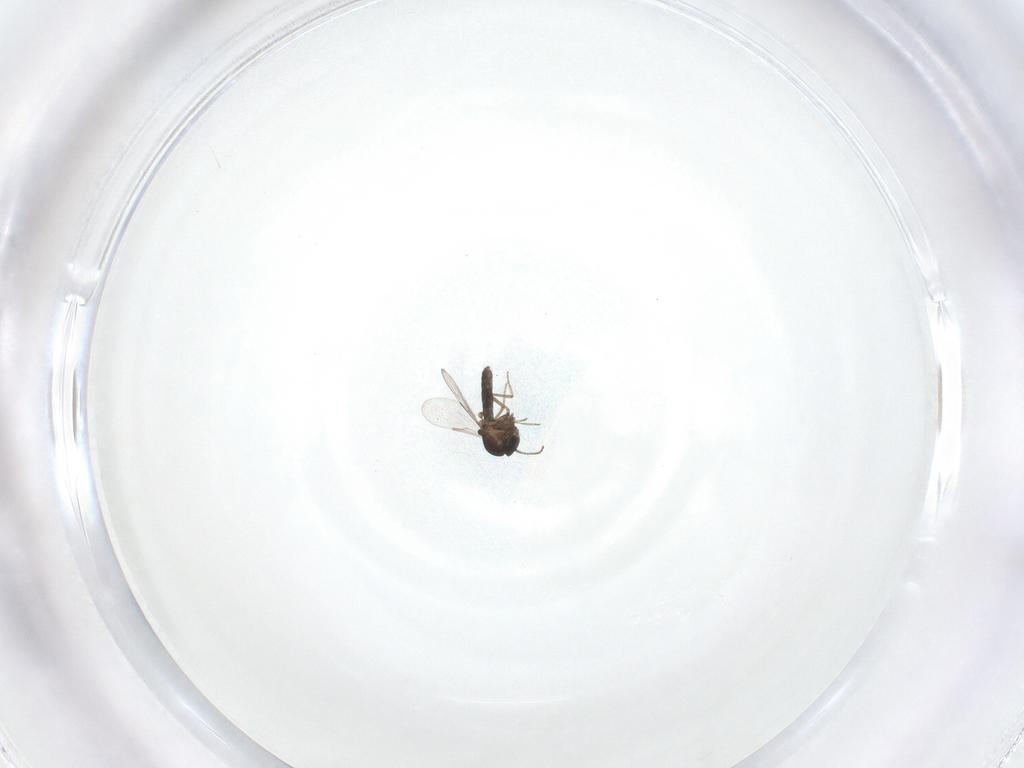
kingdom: Animalia
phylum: Arthropoda
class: Insecta
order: Diptera
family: Ceratopogonidae
